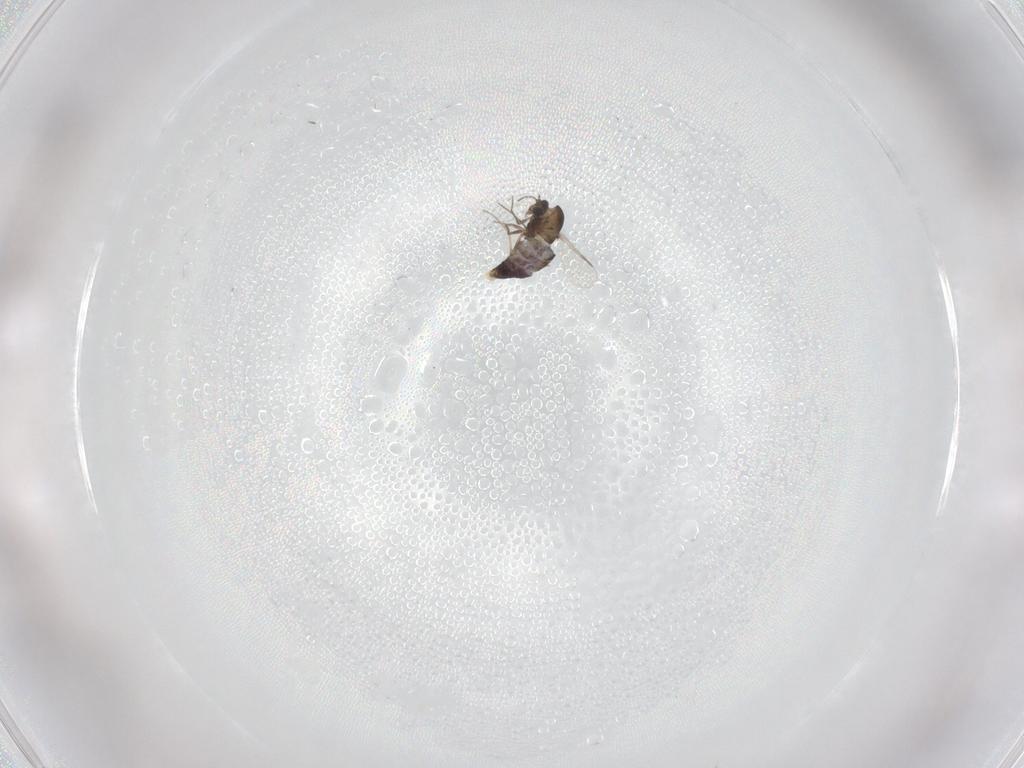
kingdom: Animalia
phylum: Arthropoda
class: Insecta
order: Diptera
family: Chironomidae
